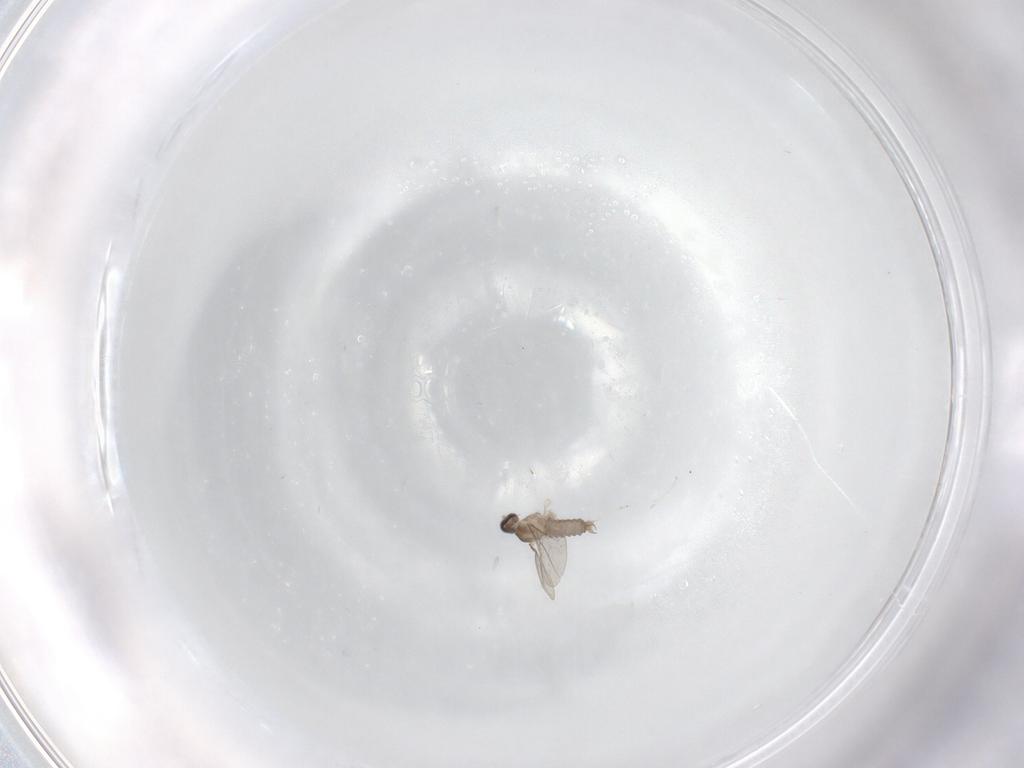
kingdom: Animalia
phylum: Arthropoda
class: Insecta
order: Diptera
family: Cecidomyiidae
